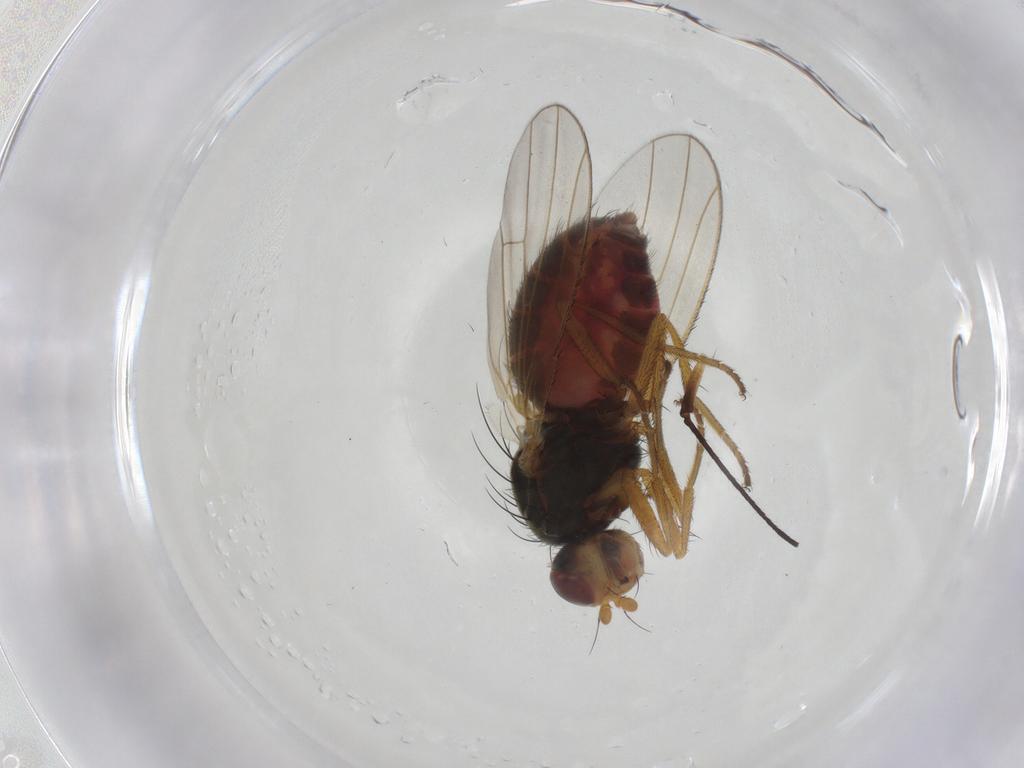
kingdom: Animalia
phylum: Arthropoda
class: Insecta
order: Diptera
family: Heleomyzidae
